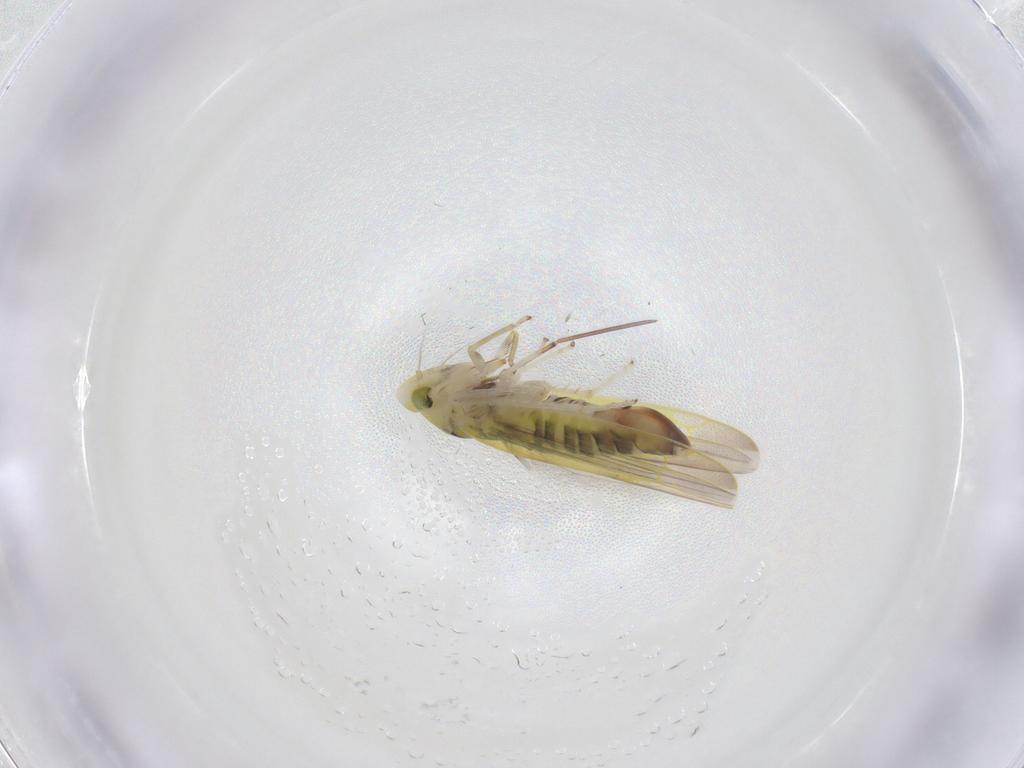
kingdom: Animalia
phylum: Arthropoda
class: Insecta
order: Hemiptera
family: Cicadellidae
